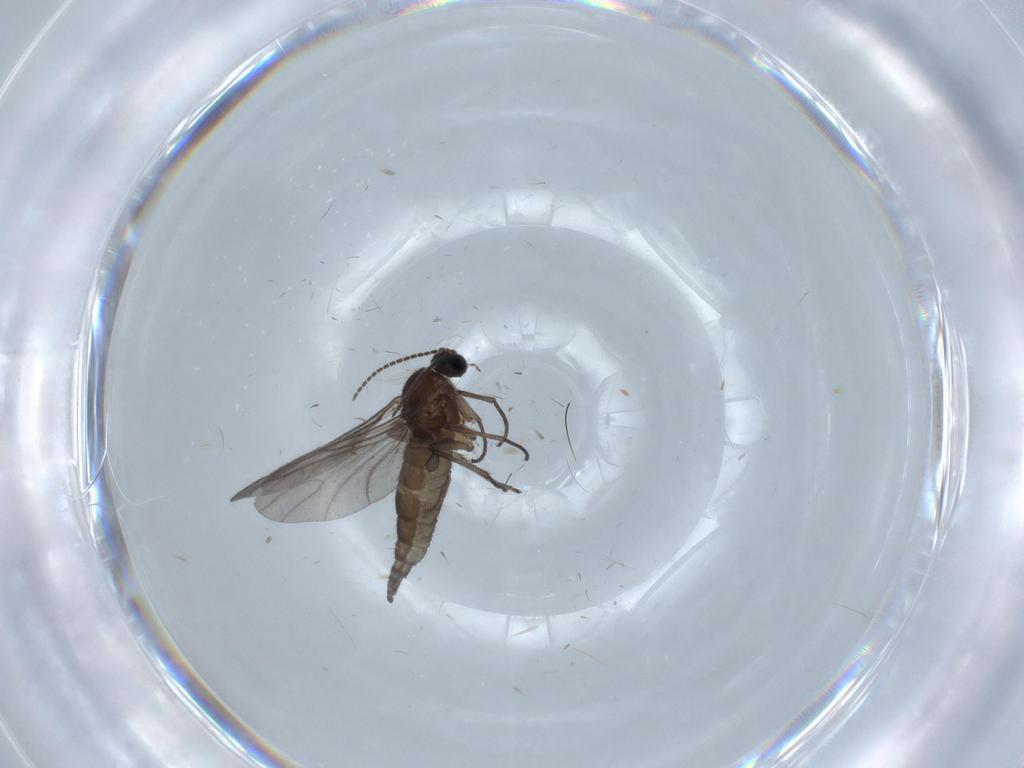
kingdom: Animalia
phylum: Arthropoda
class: Insecta
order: Diptera
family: Sciaridae
